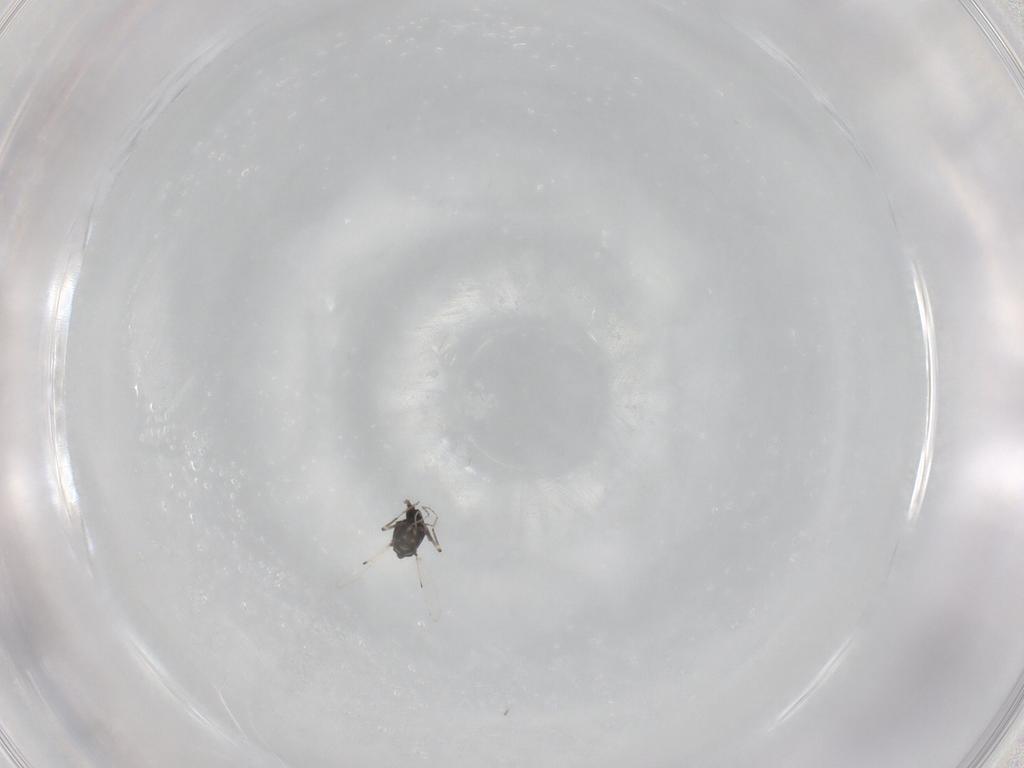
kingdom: Animalia
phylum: Arthropoda
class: Insecta
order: Diptera
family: Ceratopogonidae
